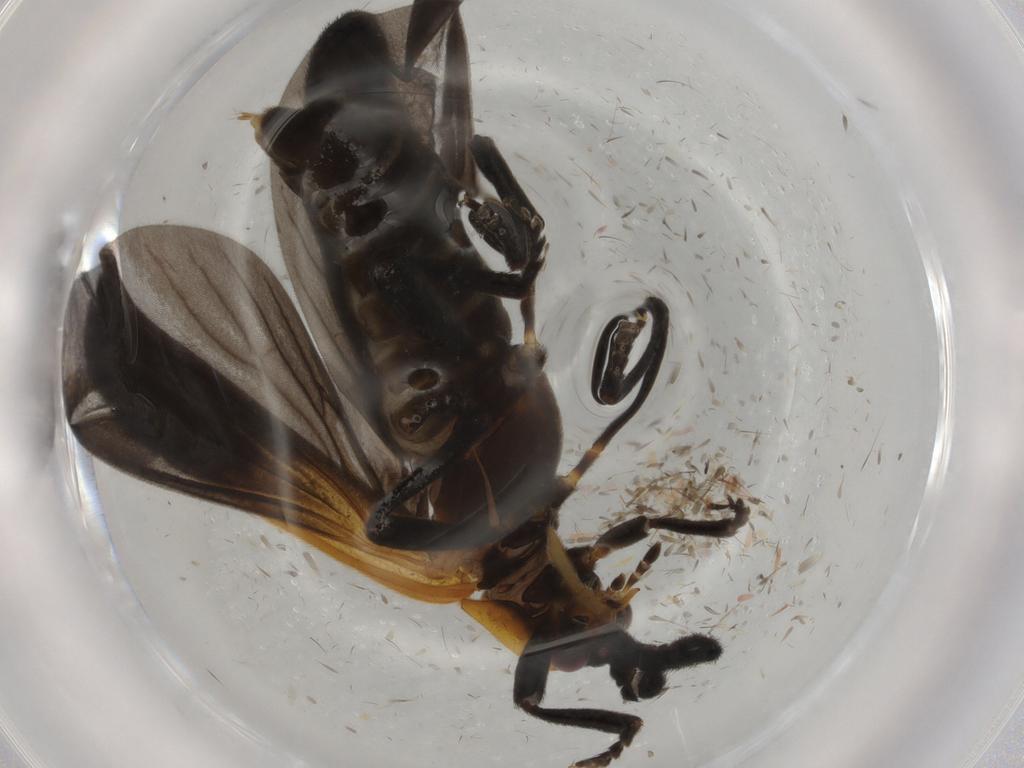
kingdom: Animalia
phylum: Arthropoda
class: Insecta
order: Coleoptera
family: Lycidae
